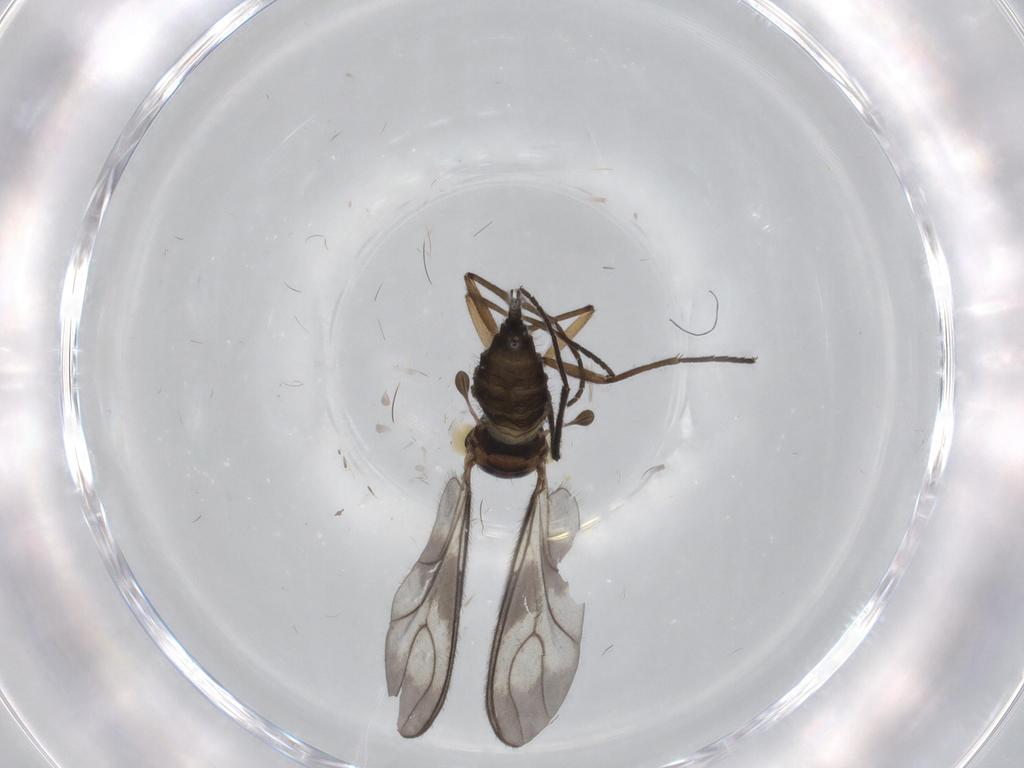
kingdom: Animalia
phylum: Arthropoda
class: Insecta
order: Diptera
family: Sciaridae
